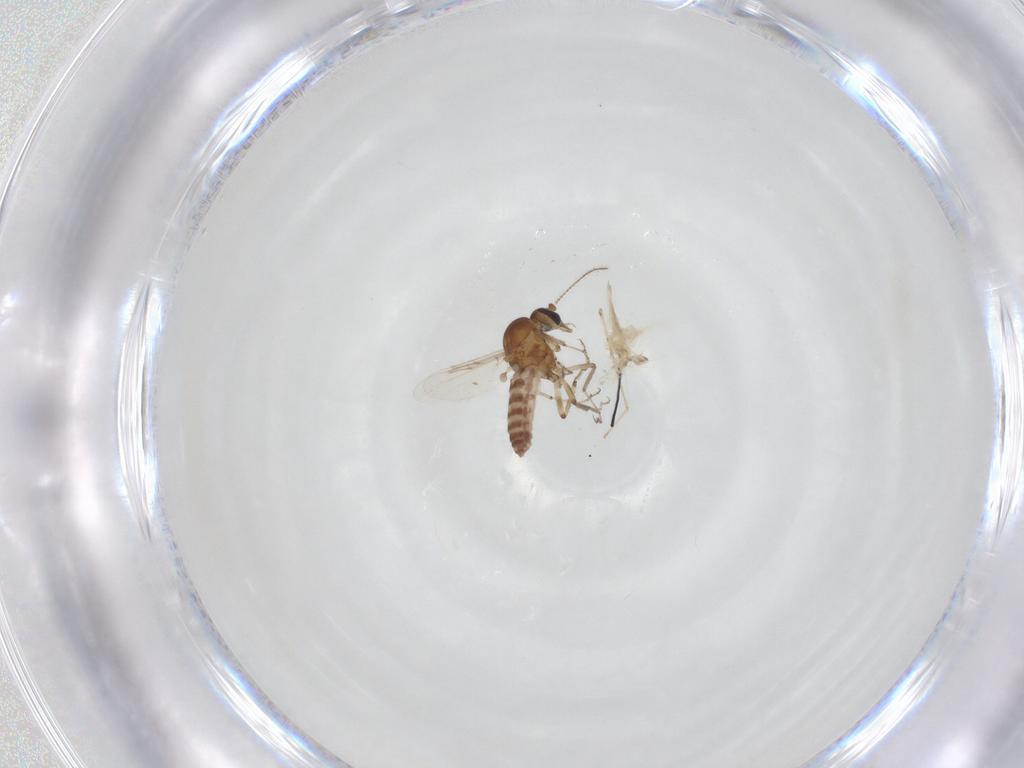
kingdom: Animalia
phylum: Arthropoda
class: Insecta
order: Diptera
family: Ceratopogonidae
